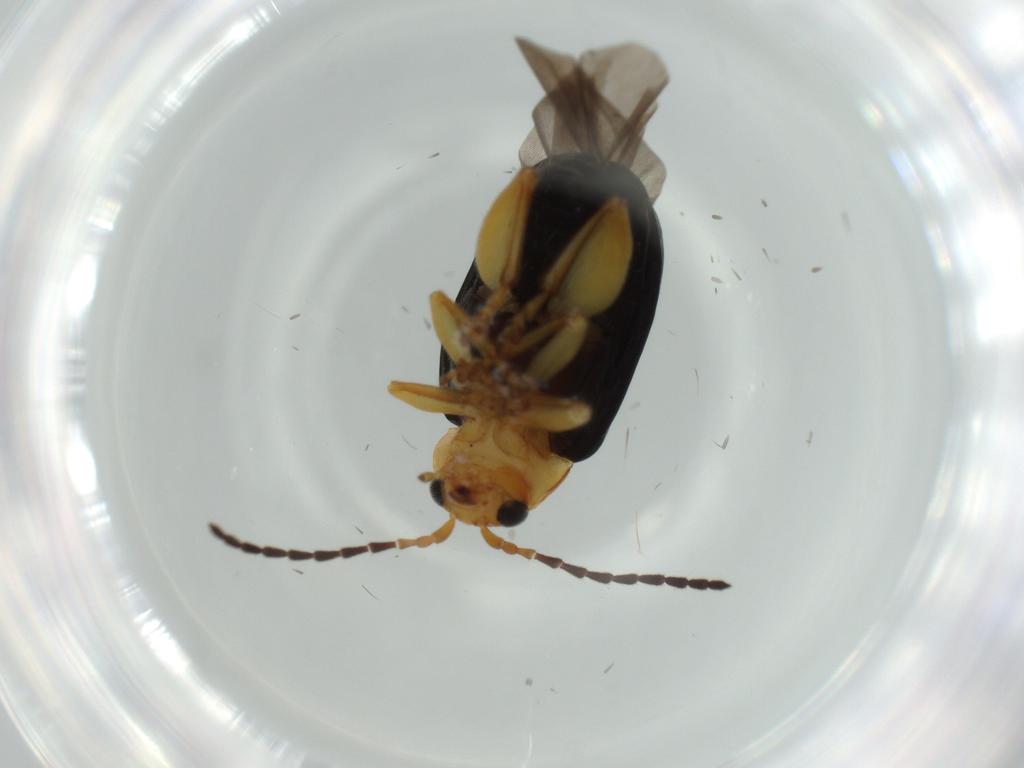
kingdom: Animalia
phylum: Arthropoda
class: Insecta
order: Coleoptera
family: Chrysomelidae
